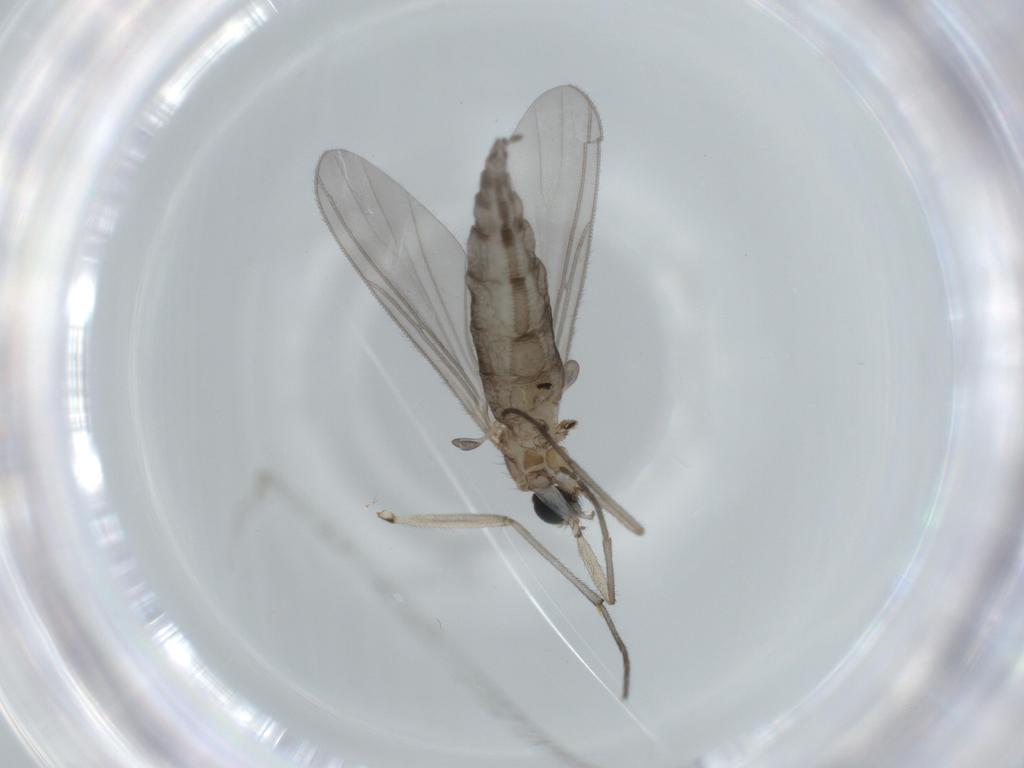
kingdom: Animalia
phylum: Arthropoda
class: Insecta
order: Diptera
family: Sciaridae
